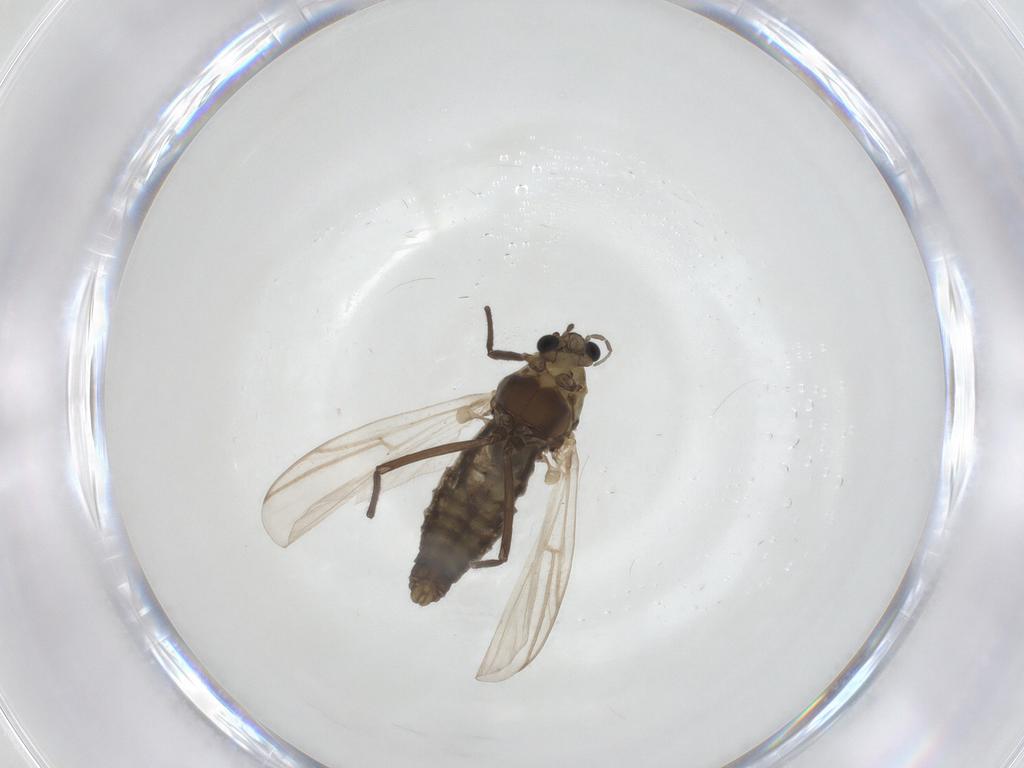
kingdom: Animalia
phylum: Arthropoda
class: Insecta
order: Diptera
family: Chironomidae
